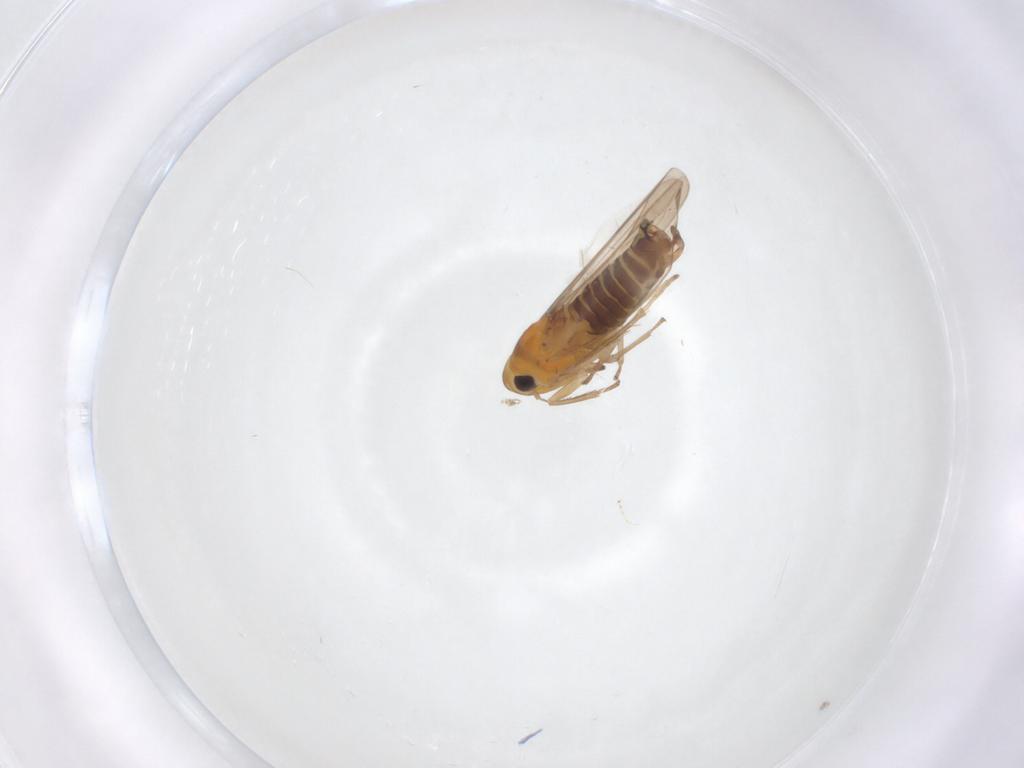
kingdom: Animalia
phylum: Arthropoda
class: Insecta
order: Hemiptera
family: Cicadellidae
